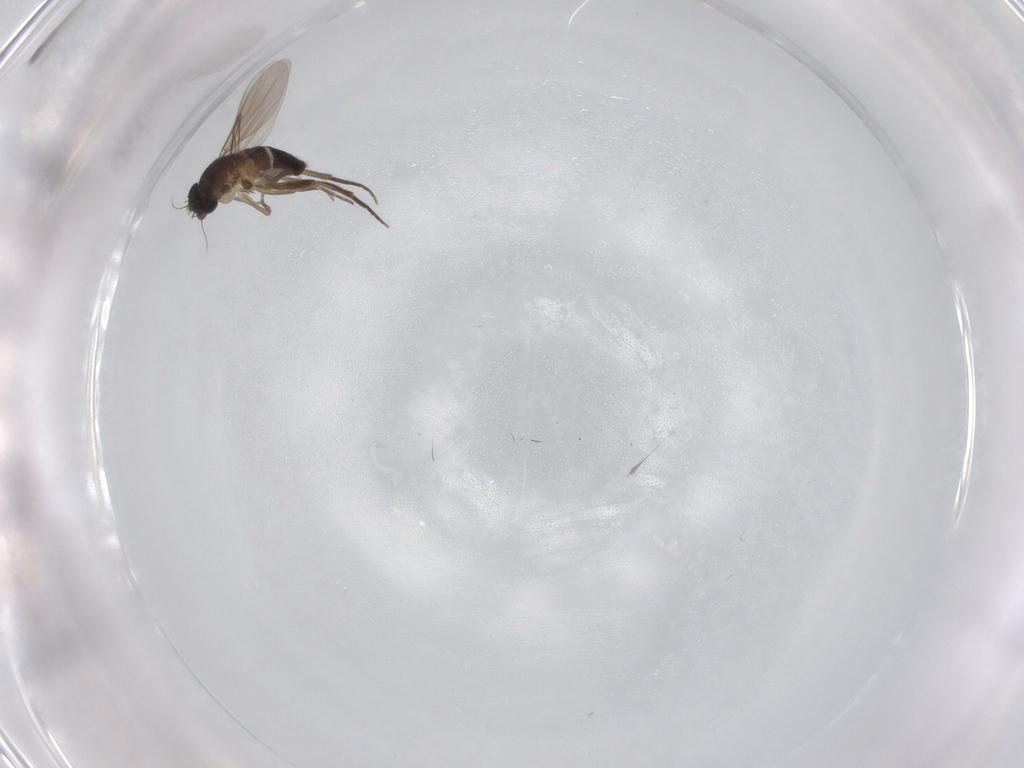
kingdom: Animalia
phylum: Arthropoda
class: Insecta
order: Diptera
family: Phoridae
